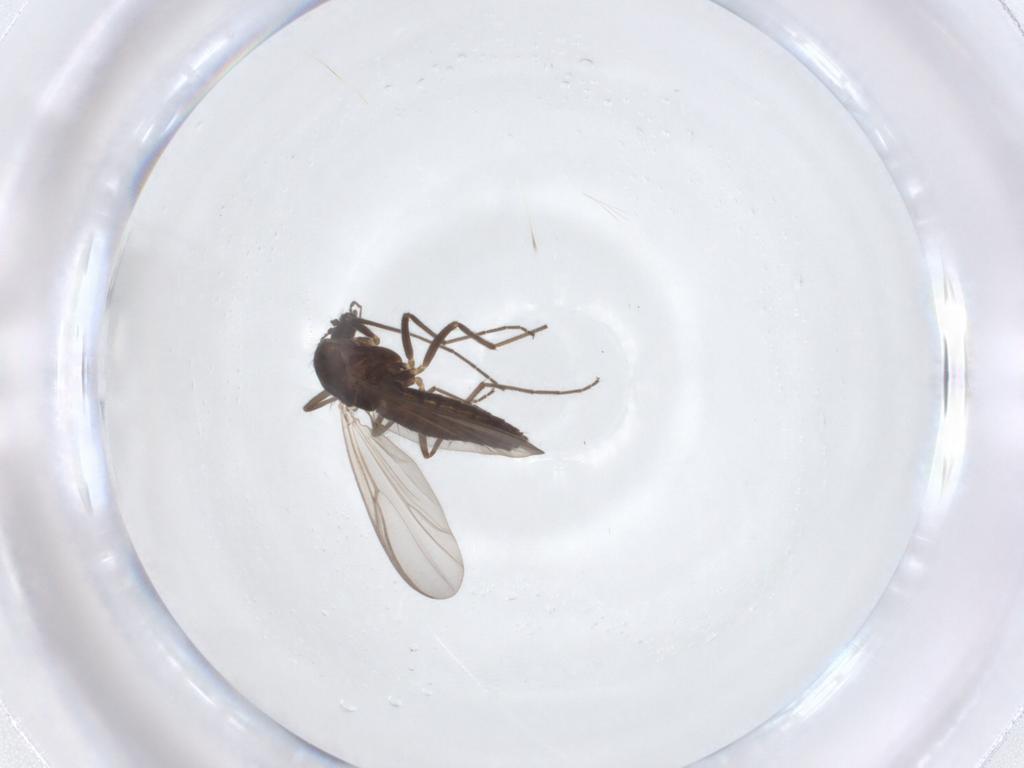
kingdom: Animalia
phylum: Arthropoda
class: Insecta
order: Diptera
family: Chironomidae
